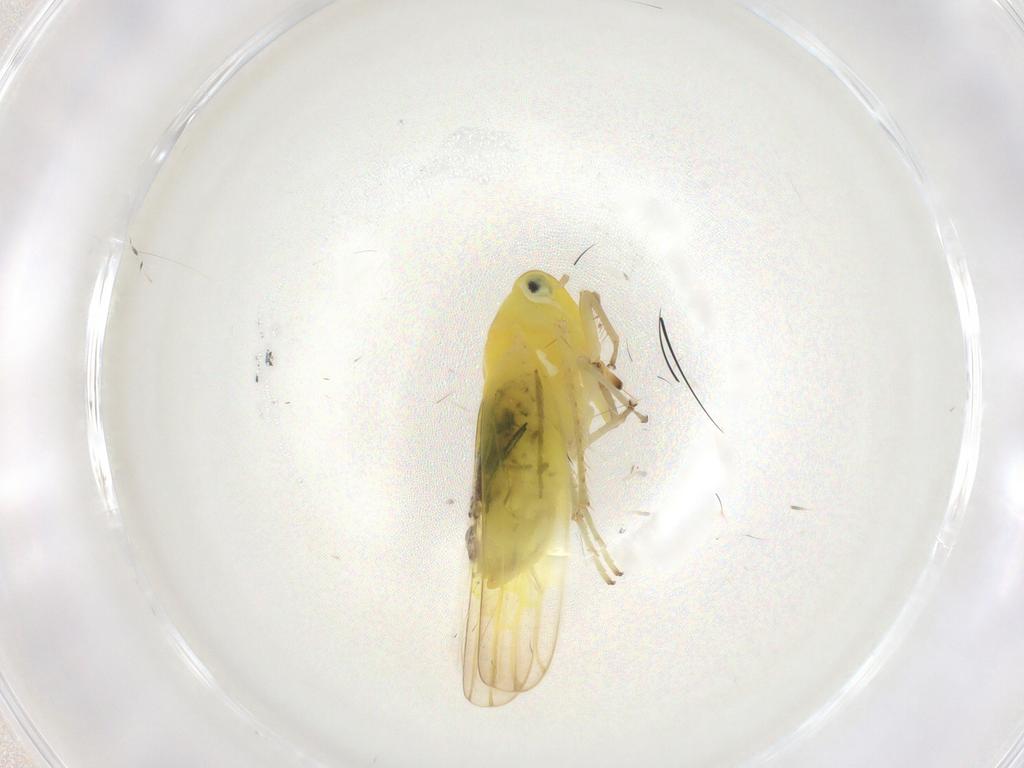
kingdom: Animalia
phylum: Arthropoda
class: Insecta
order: Hemiptera
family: Cicadellidae
